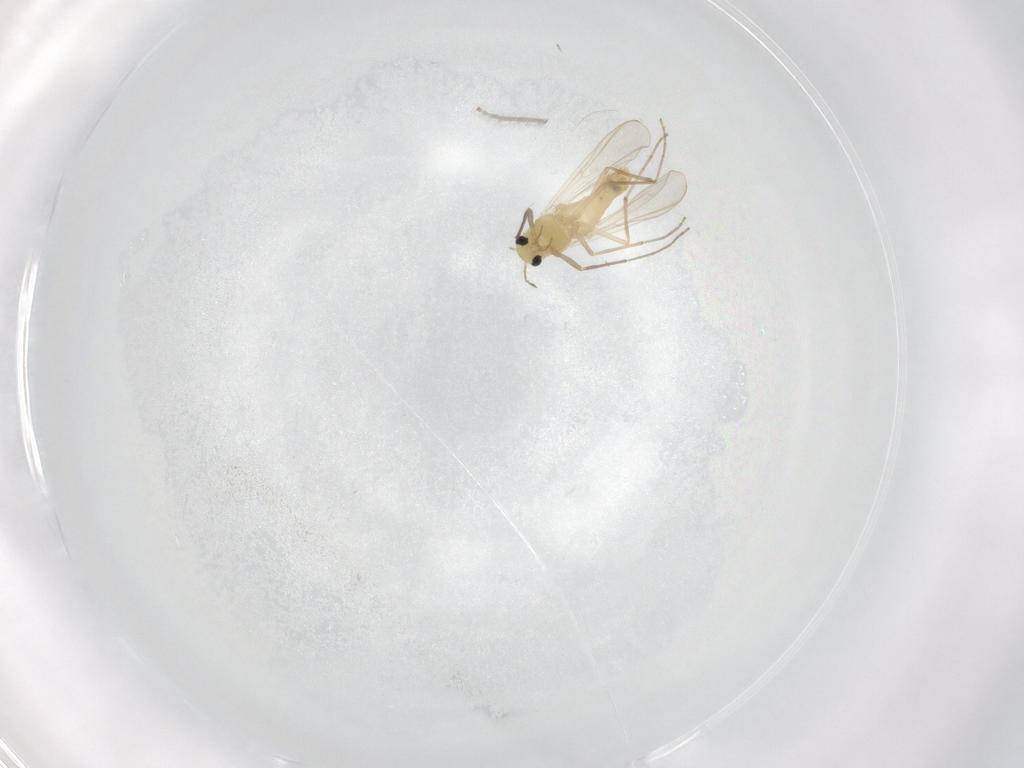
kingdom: Animalia
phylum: Arthropoda
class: Insecta
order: Diptera
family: Chironomidae
